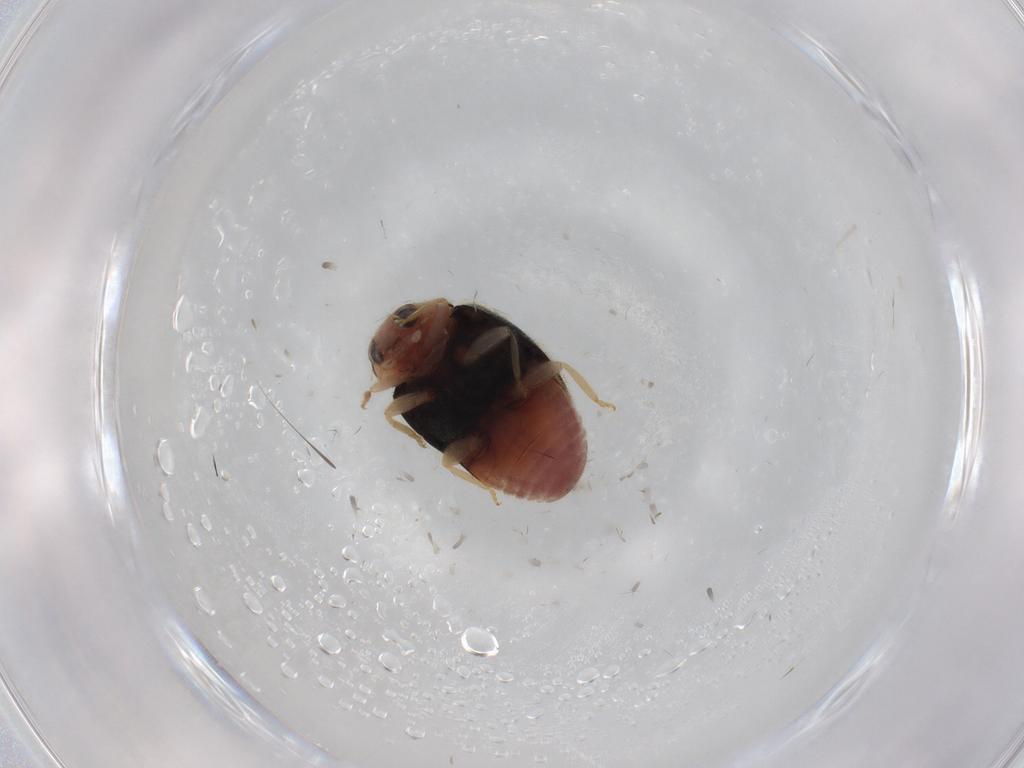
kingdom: Animalia
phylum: Arthropoda
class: Insecta
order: Coleoptera
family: Coccinellidae
